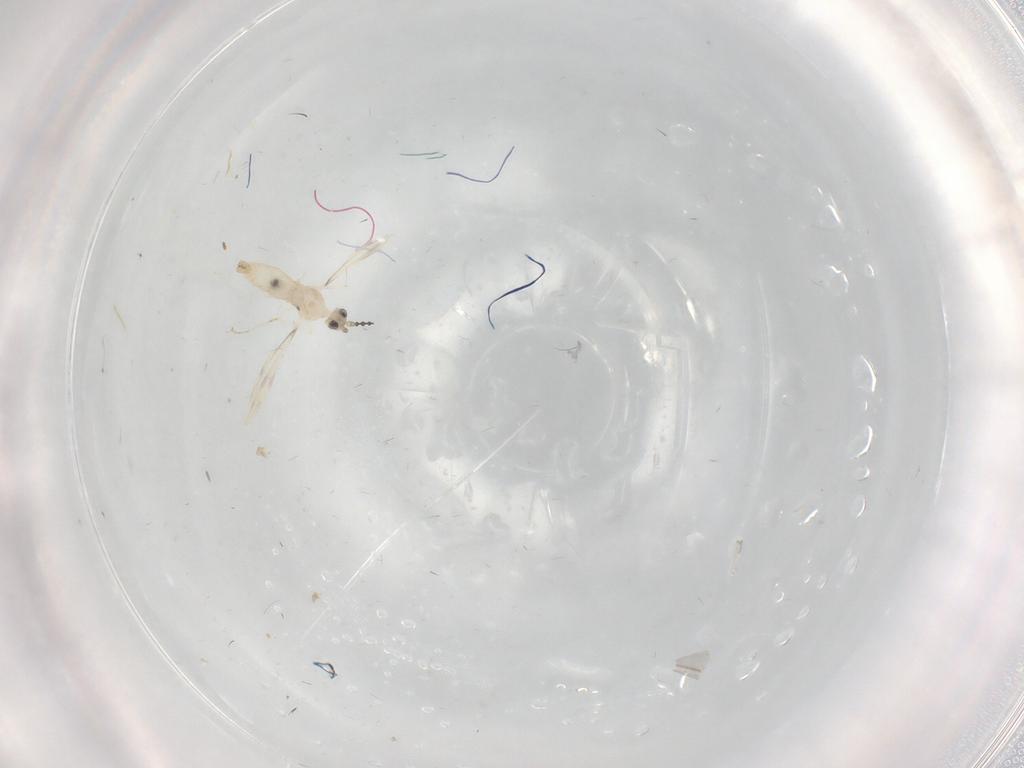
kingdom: Animalia
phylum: Arthropoda
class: Insecta
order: Diptera
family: Cecidomyiidae
